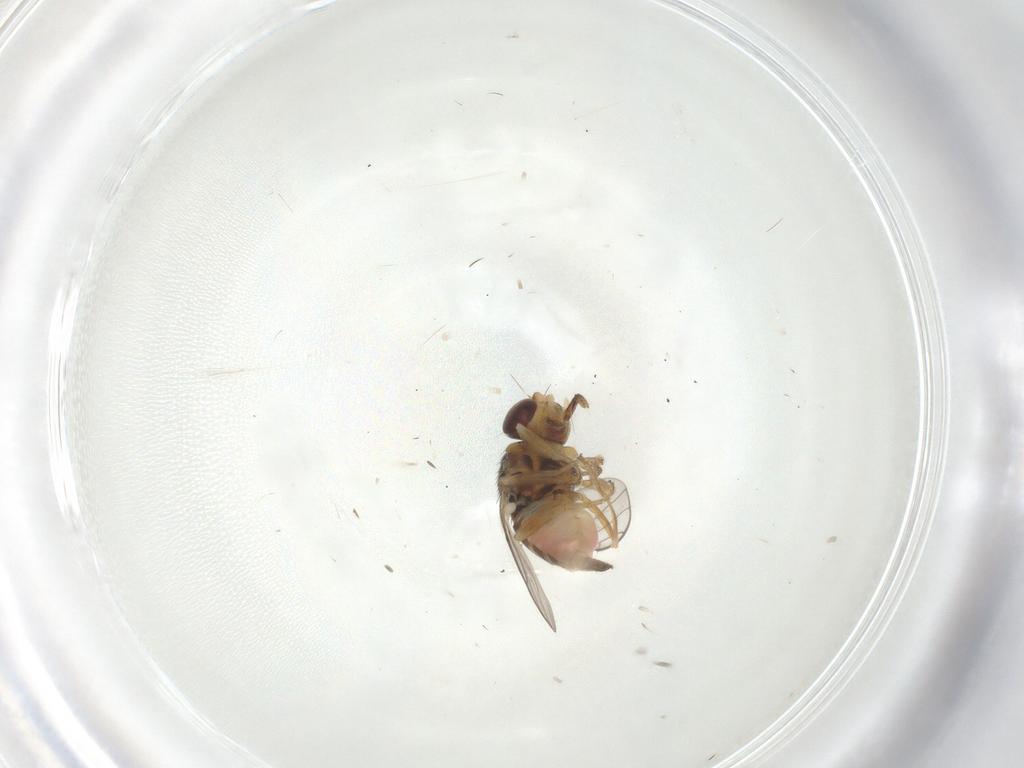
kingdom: Animalia
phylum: Arthropoda
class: Insecta
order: Diptera
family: Chloropidae
